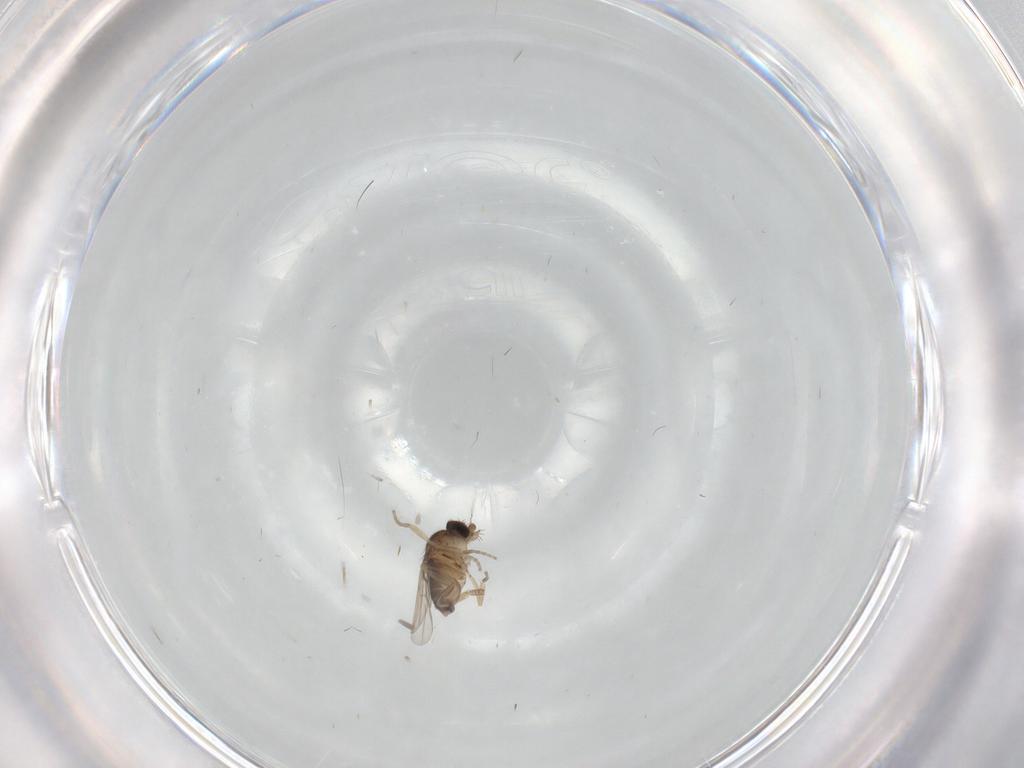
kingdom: Animalia
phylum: Arthropoda
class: Insecta
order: Diptera
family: Phoridae
